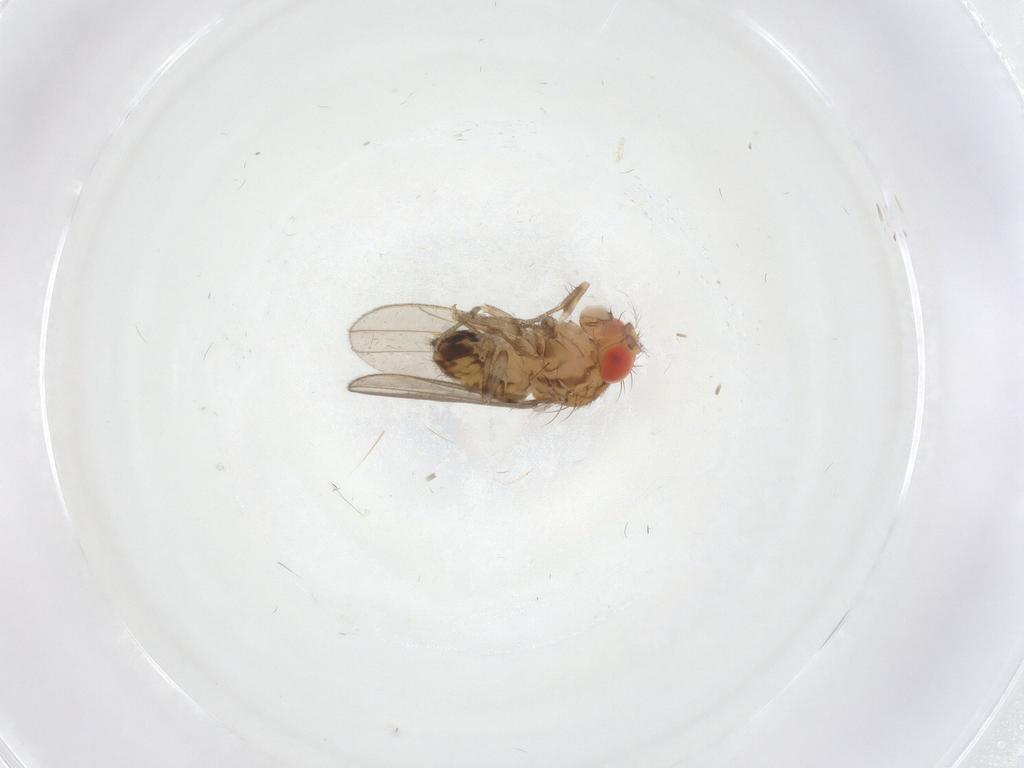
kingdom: Animalia
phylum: Arthropoda
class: Insecta
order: Diptera
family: Drosophilidae
